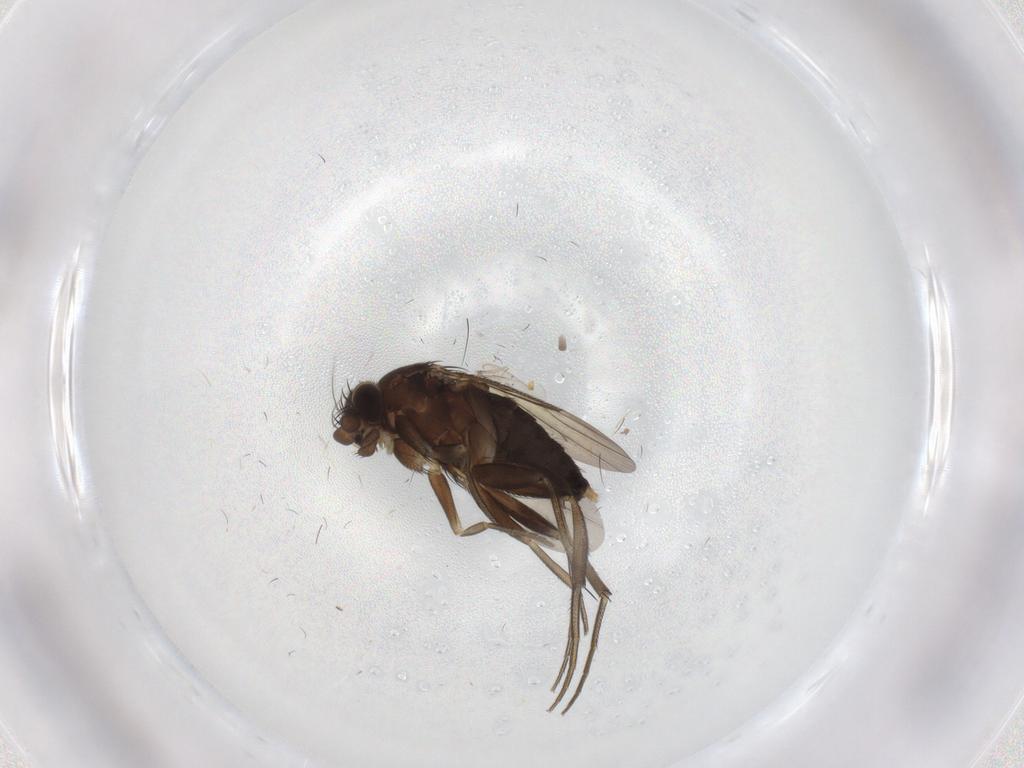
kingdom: Animalia
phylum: Arthropoda
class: Insecta
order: Diptera
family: Phoridae
